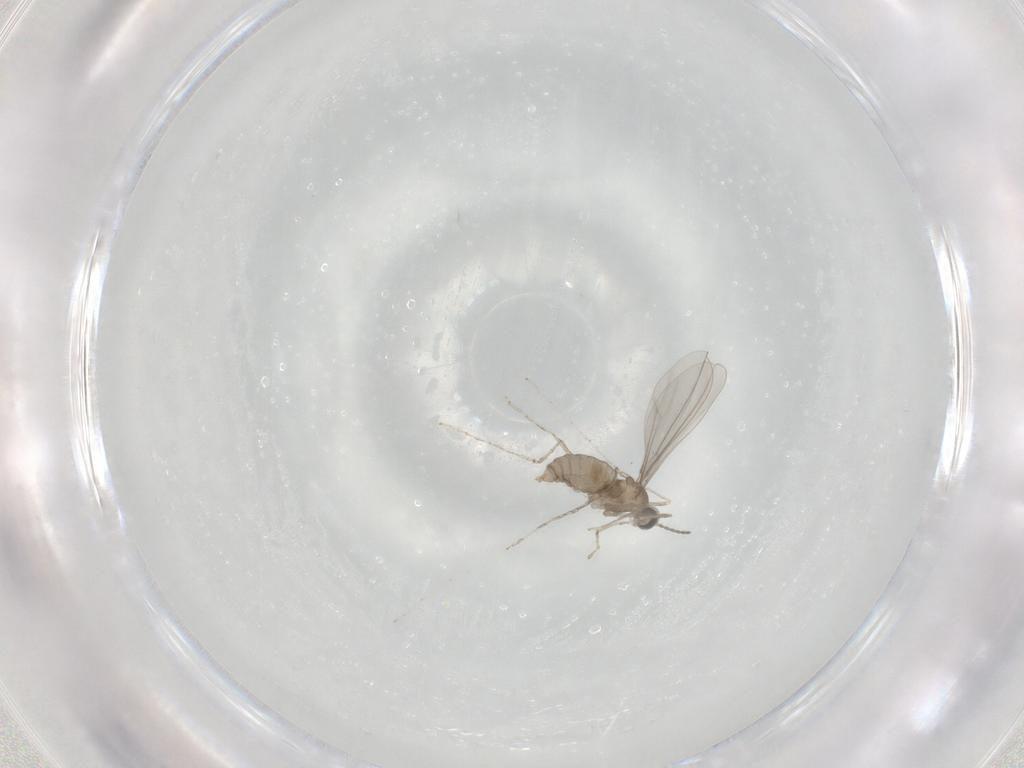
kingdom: Animalia
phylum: Arthropoda
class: Insecta
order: Diptera
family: Cecidomyiidae
